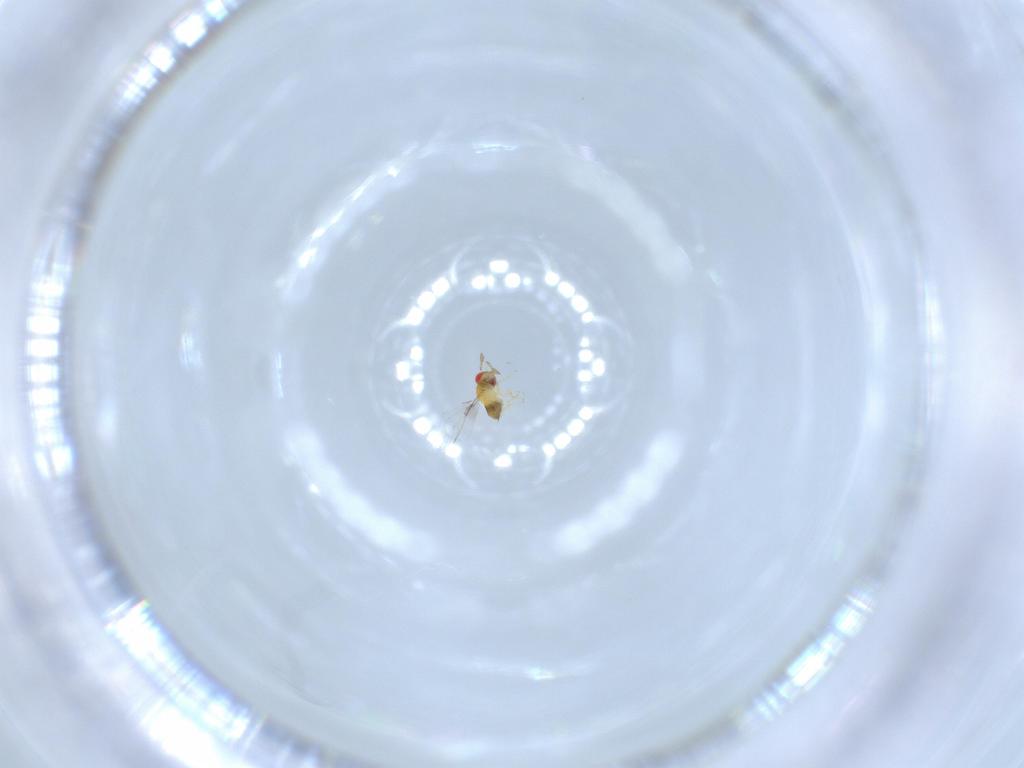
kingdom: Animalia
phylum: Arthropoda
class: Insecta
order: Hymenoptera
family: Trichogrammatidae
